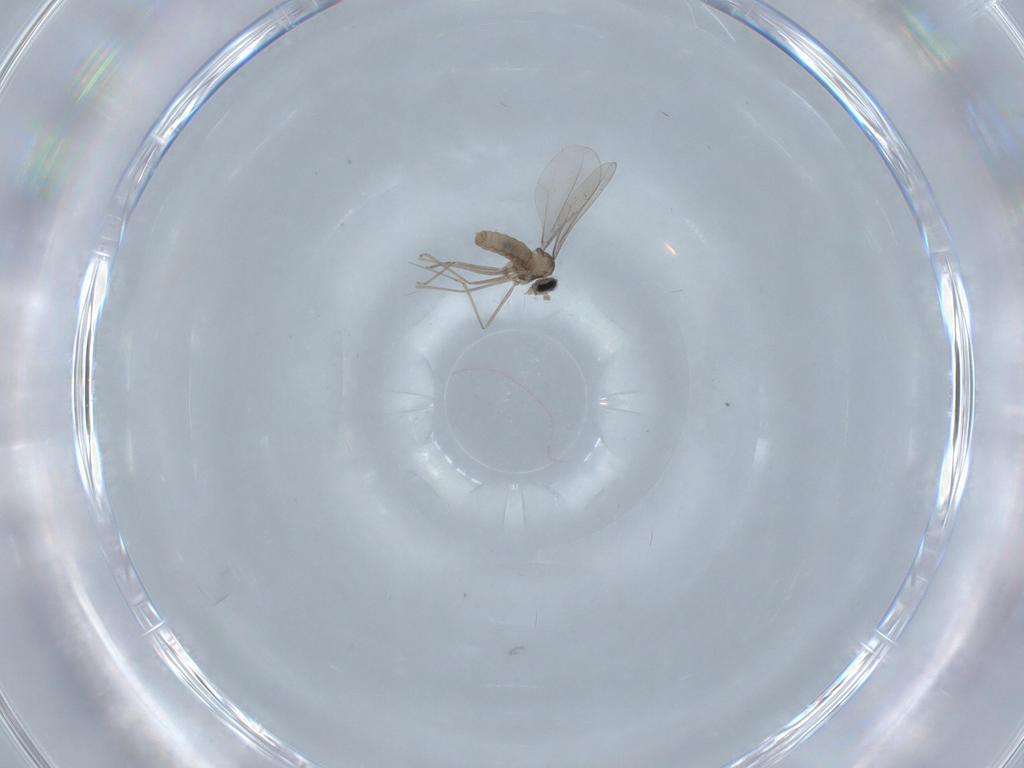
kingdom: Animalia
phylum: Arthropoda
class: Insecta
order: Diptera
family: Cecidomyiidae
